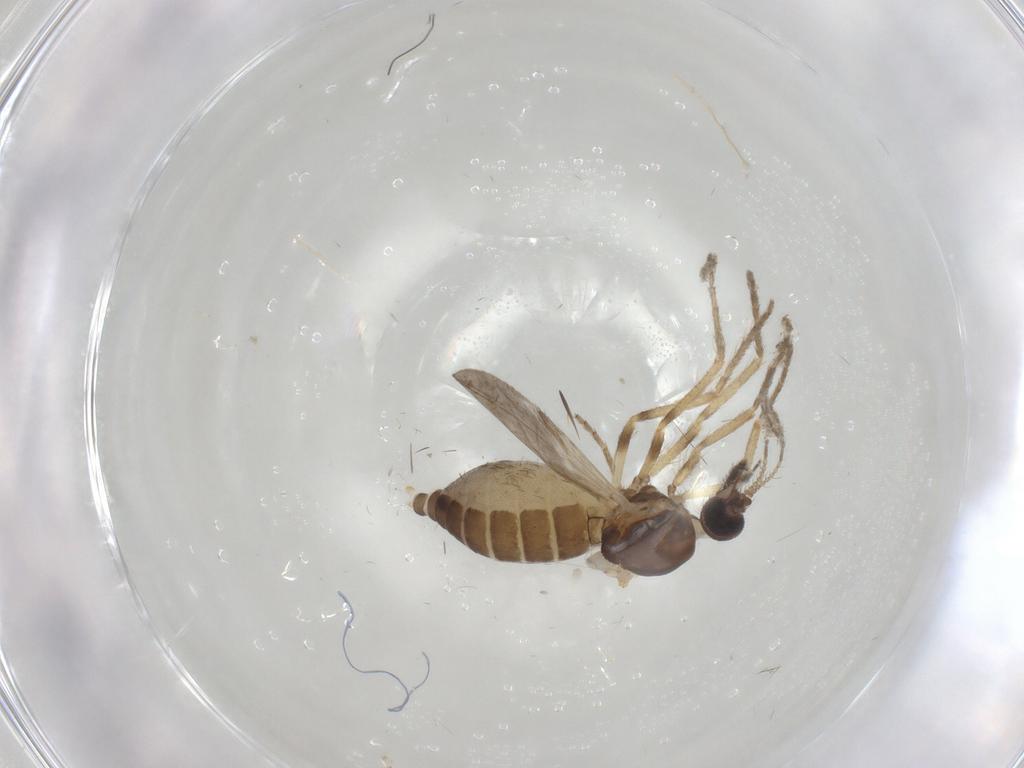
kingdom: Animalia
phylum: Arthropoda
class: Insecta
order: Diptera
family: Ceratopogonidae
